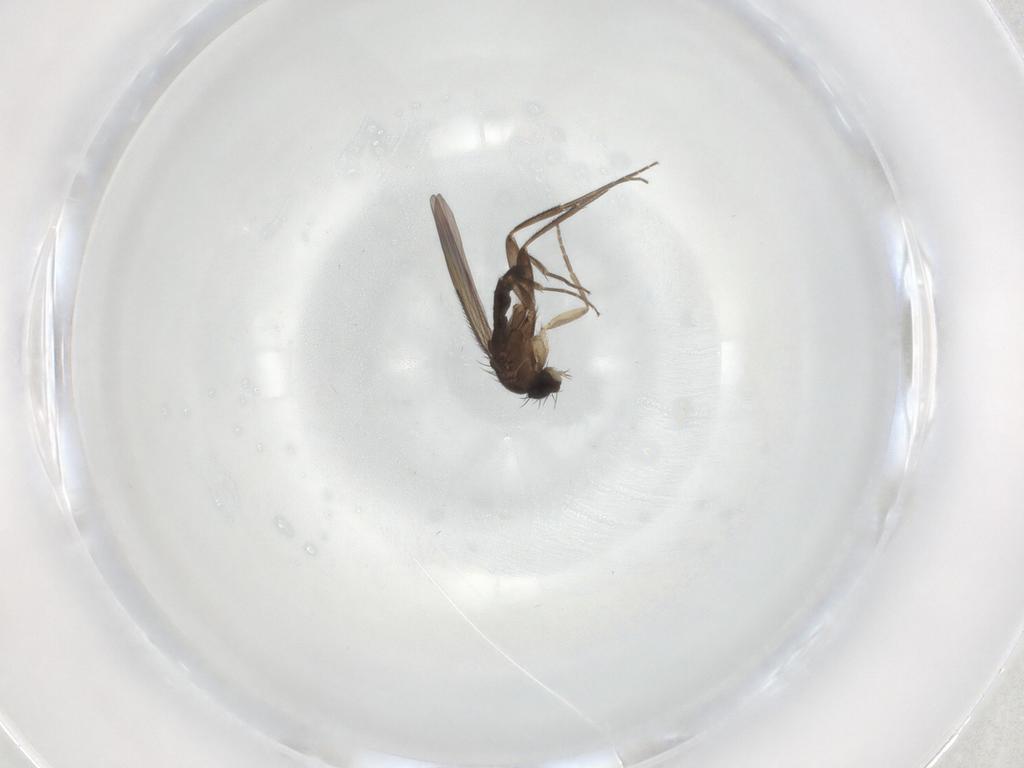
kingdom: Animalia
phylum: Arthropoda
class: Insecta
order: Diptera
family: Phoridae
